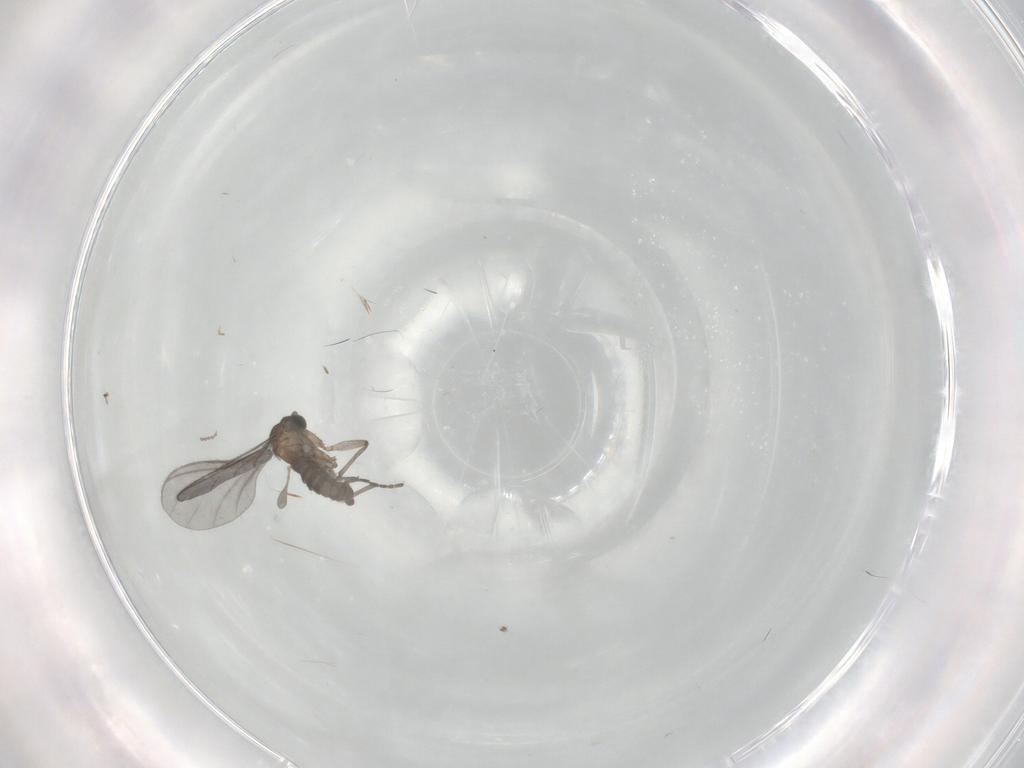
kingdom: Animalia
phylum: Arthropoda
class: Insecta
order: Diptera
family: Sciaridae
